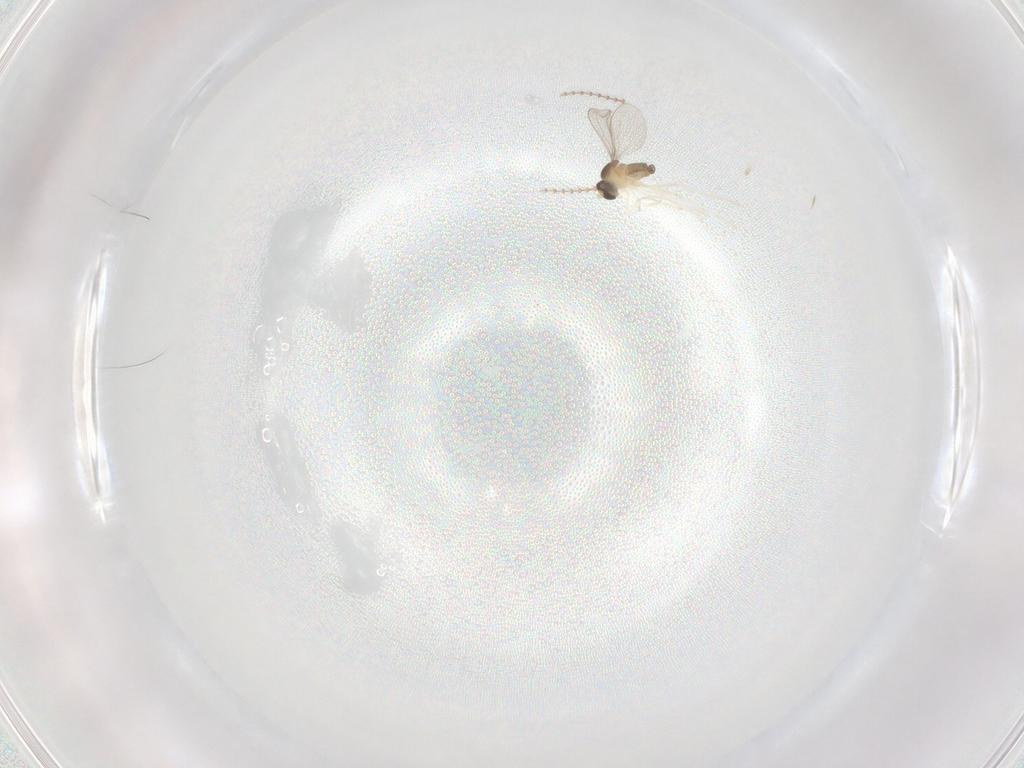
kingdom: Animalia
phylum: Arthropoda
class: Insecta
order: Diptera
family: Cecidomyiidae
